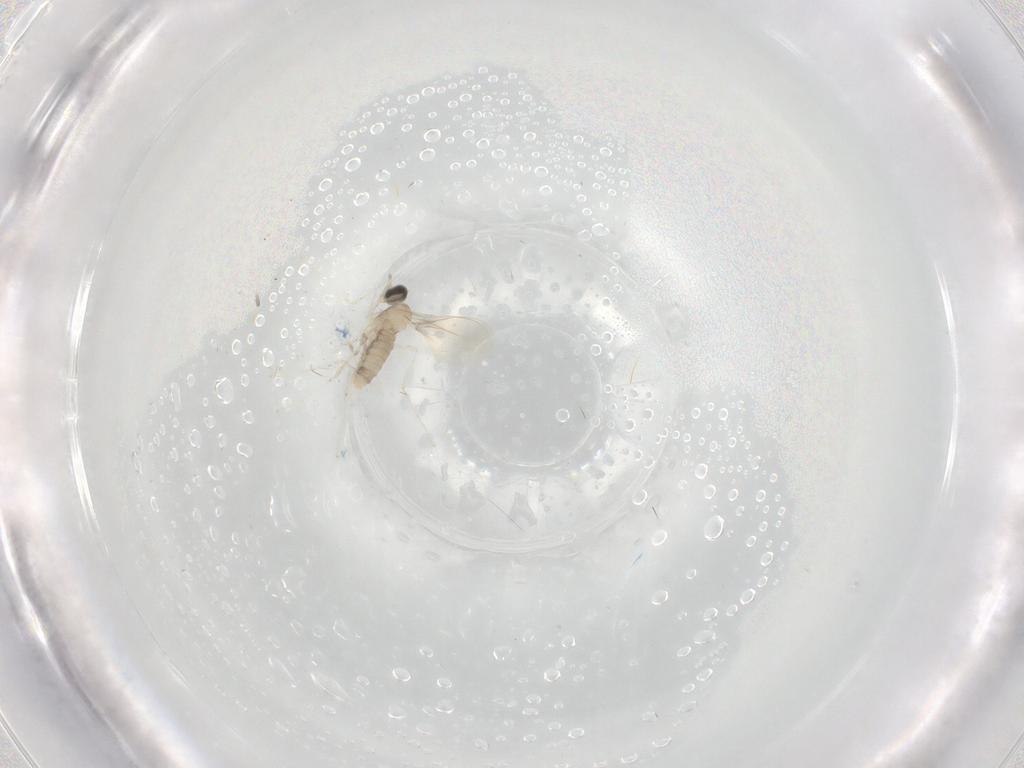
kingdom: Animalia
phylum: Arthropoda
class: Insecta
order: Diptera
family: Cecidomyiidae
